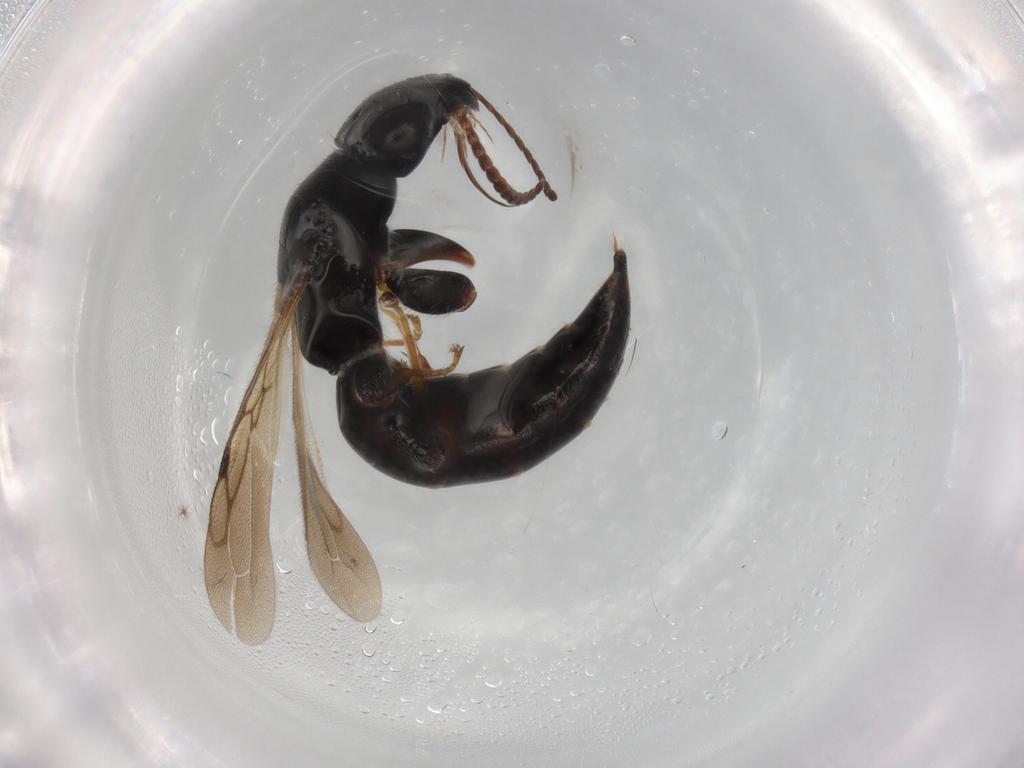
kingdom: Animalia
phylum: Arthropoda
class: Insecta
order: Hymenoptera
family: Bethylidae
